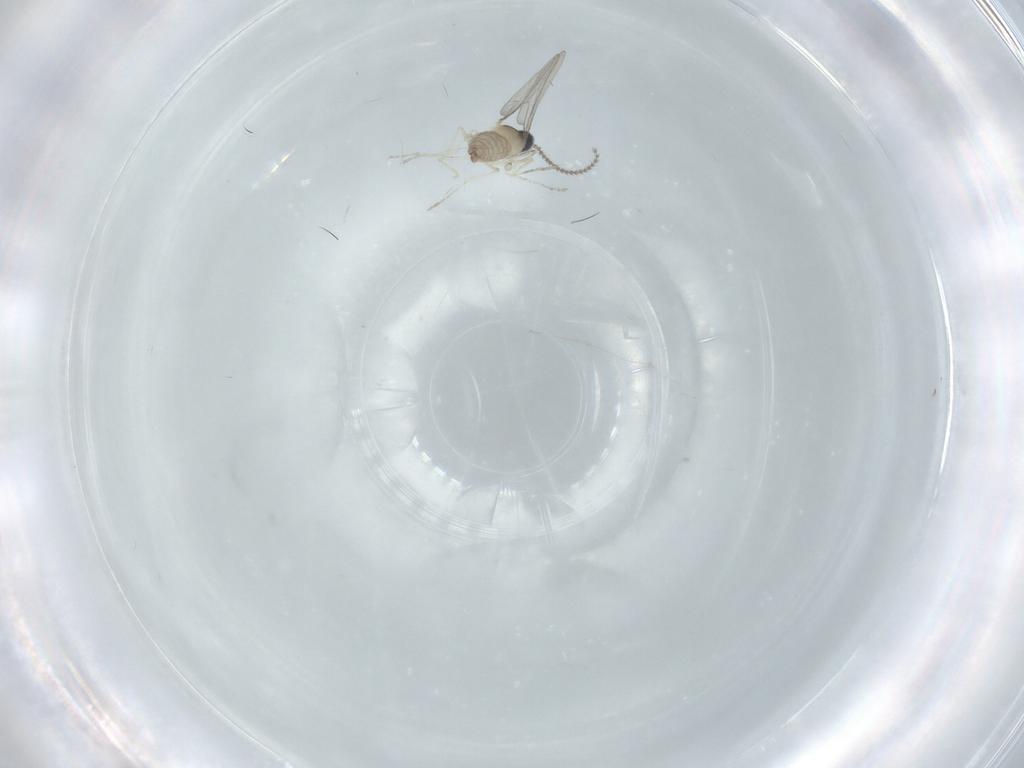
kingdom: Animalia
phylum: Arthropoda
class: Insecta
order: Diptera
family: Cecidomyiidae
